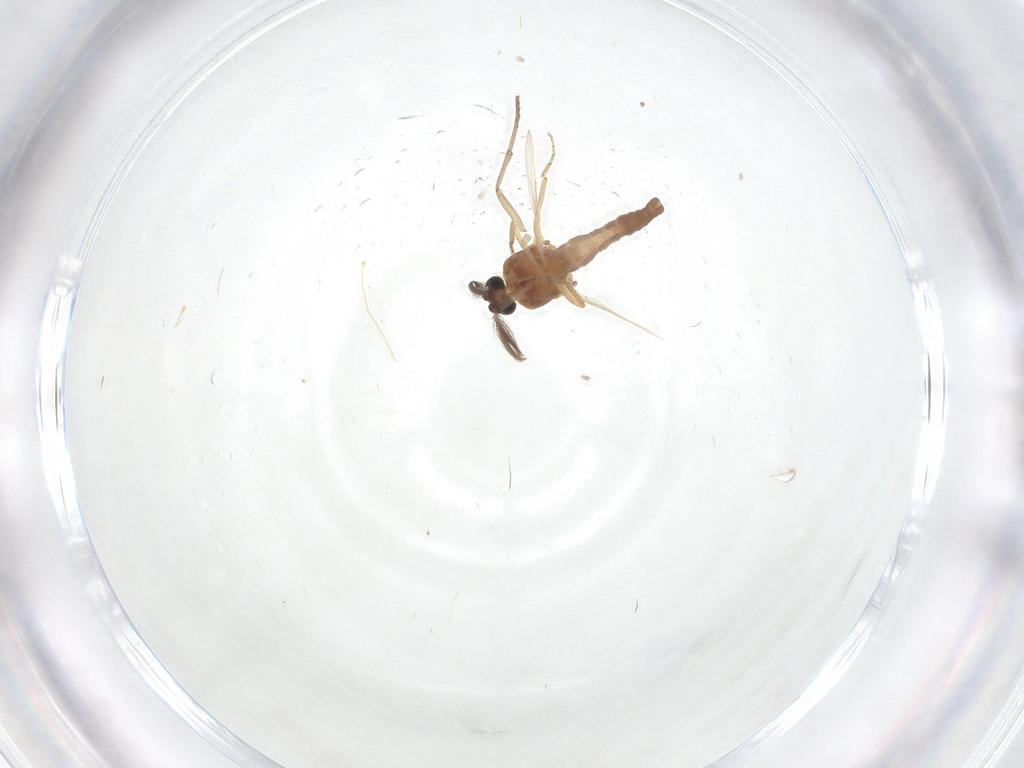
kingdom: Animalia
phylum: Arthropoda
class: Insecta
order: Diptera
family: Ceratopogonidae
